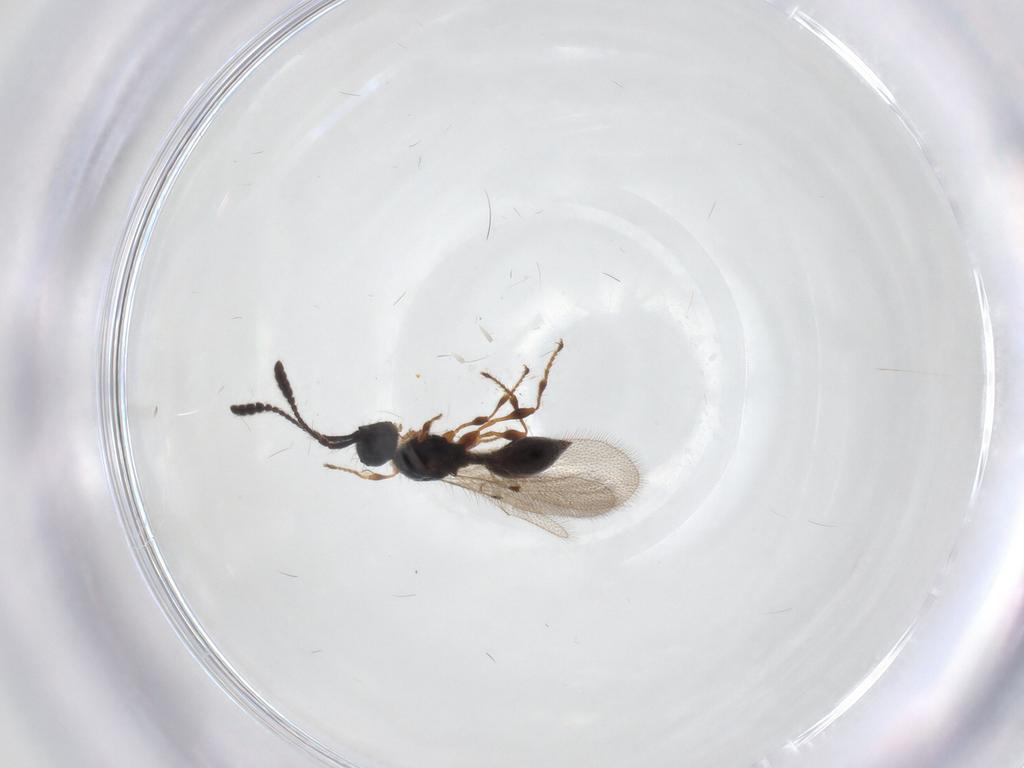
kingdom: Animalia
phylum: Arthropoda
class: Insecta
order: Hymenoptera
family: Diapriidae
